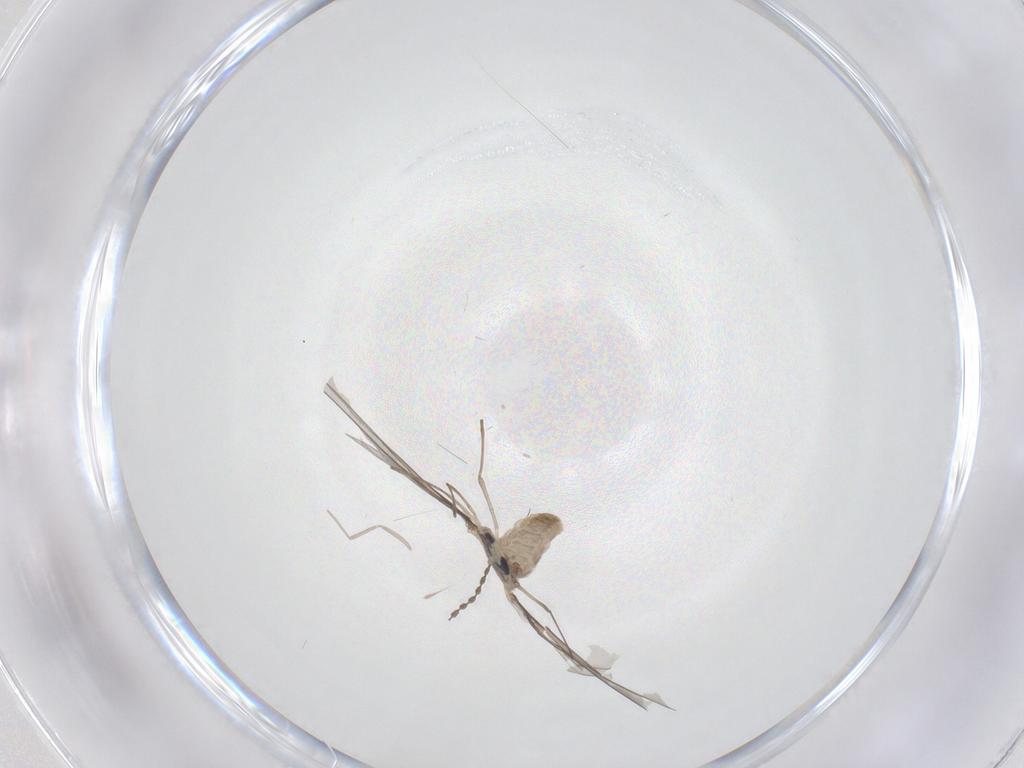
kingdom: Animalia
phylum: Arthropoda
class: Insecta
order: Diptera
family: Cecidomyiidae
